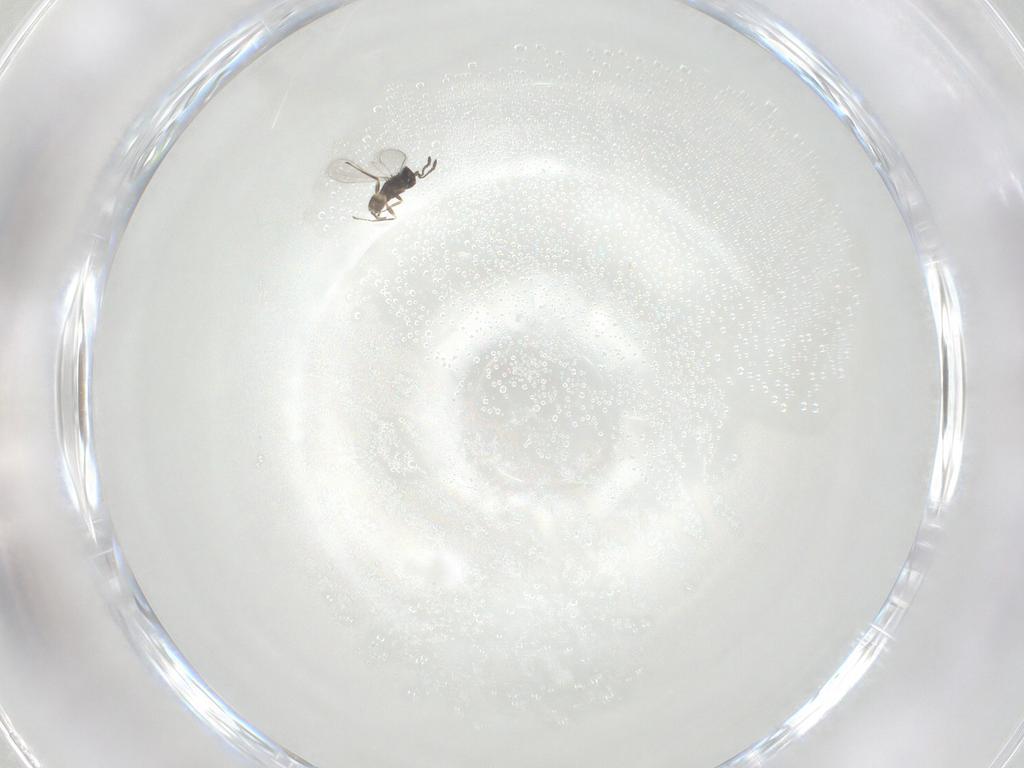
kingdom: Animalia
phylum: Arthropoda
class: Insecta
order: Hymenoptera
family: Mymaridae
